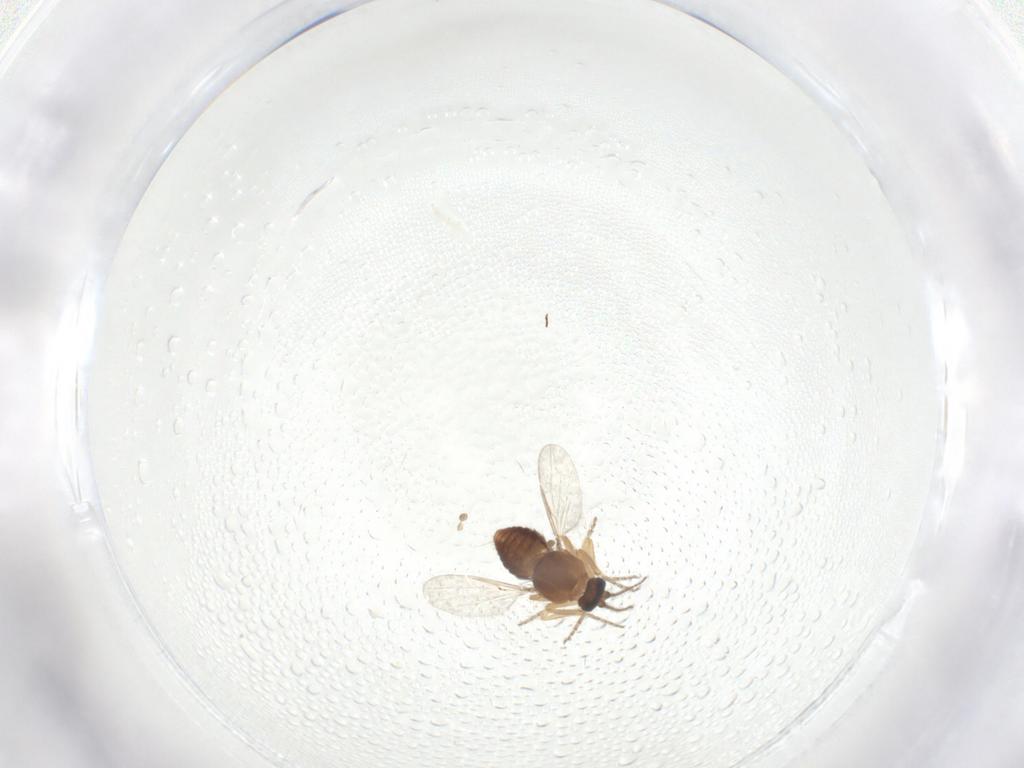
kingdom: Animalia
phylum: Arthropoda
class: Insecta
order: Diptera
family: Ceratopogonidae
